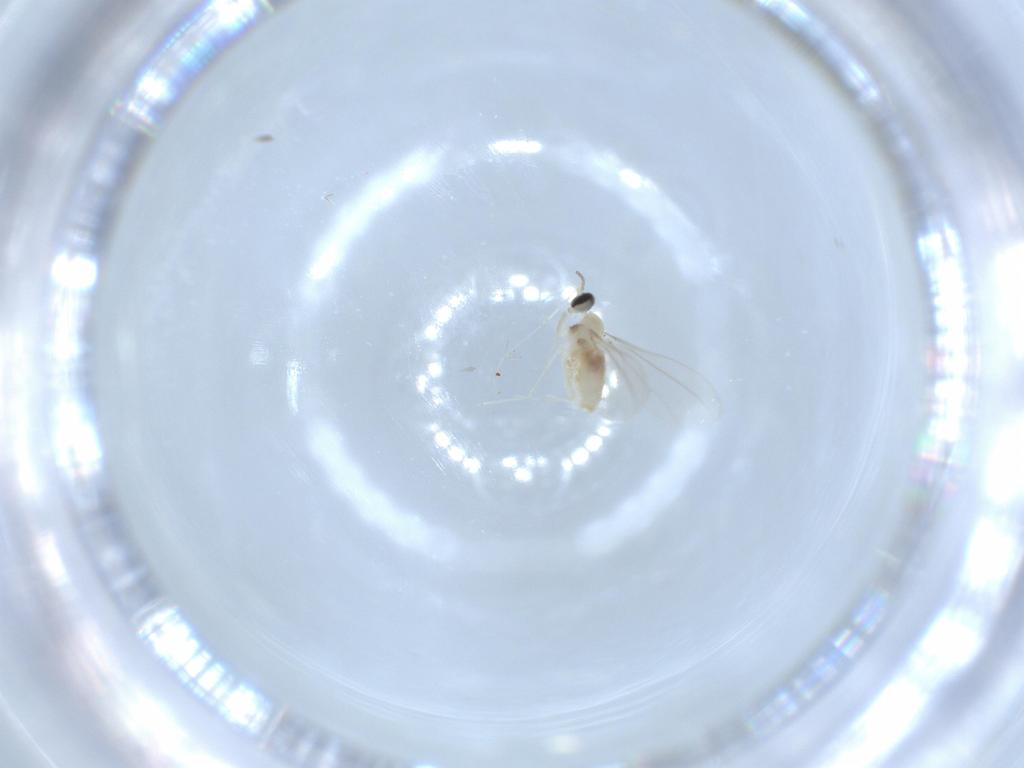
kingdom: Animalia
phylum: Arthropoda
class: Insecta
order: Diptera
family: Cecidomyiidae
